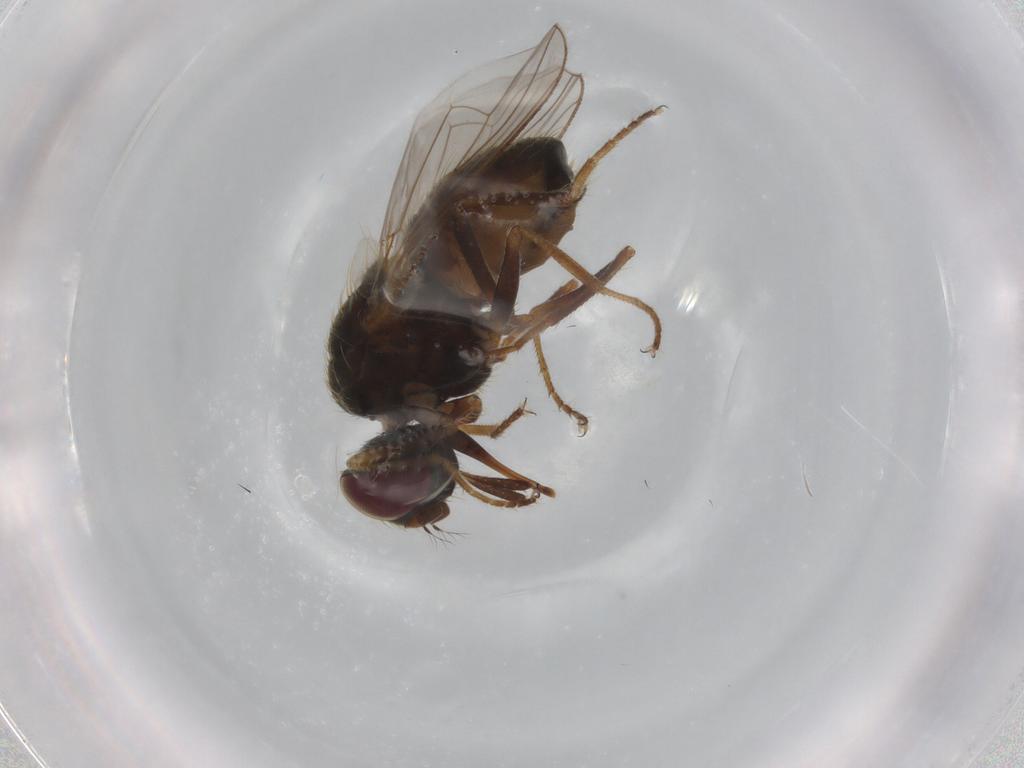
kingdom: Animalia
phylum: Arthropoda
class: Insecta
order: Diptera
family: Muscidae
